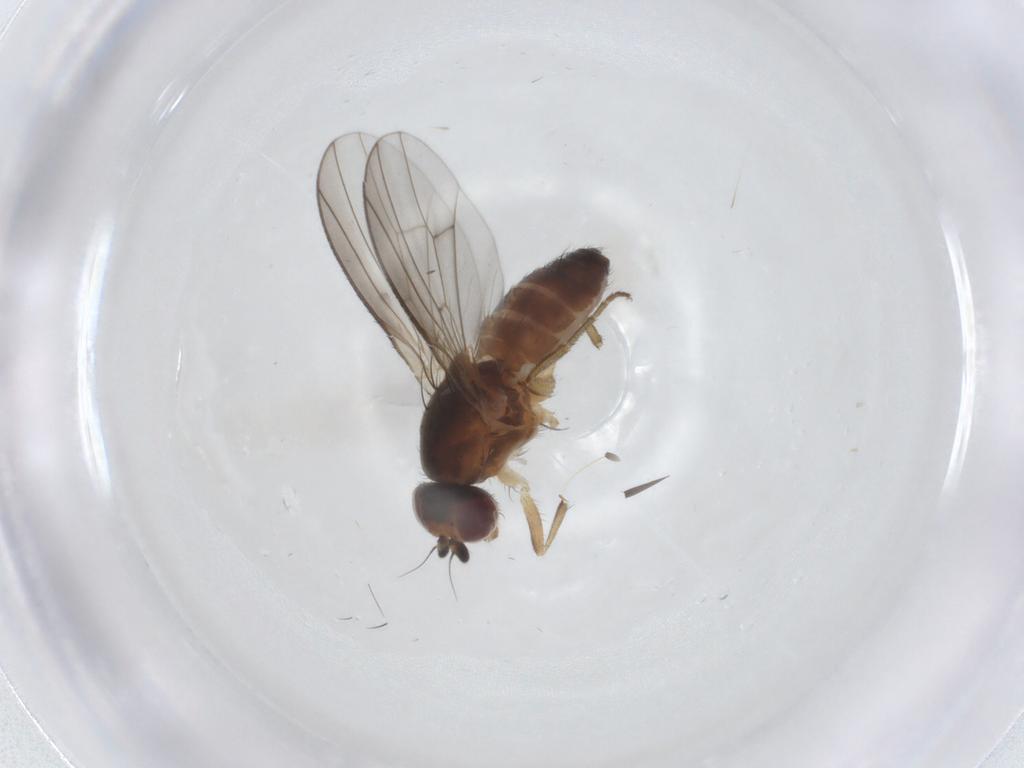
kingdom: Animalia
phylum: Arthropoda
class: Insecta
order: Diptera
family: Heleomyzidae
